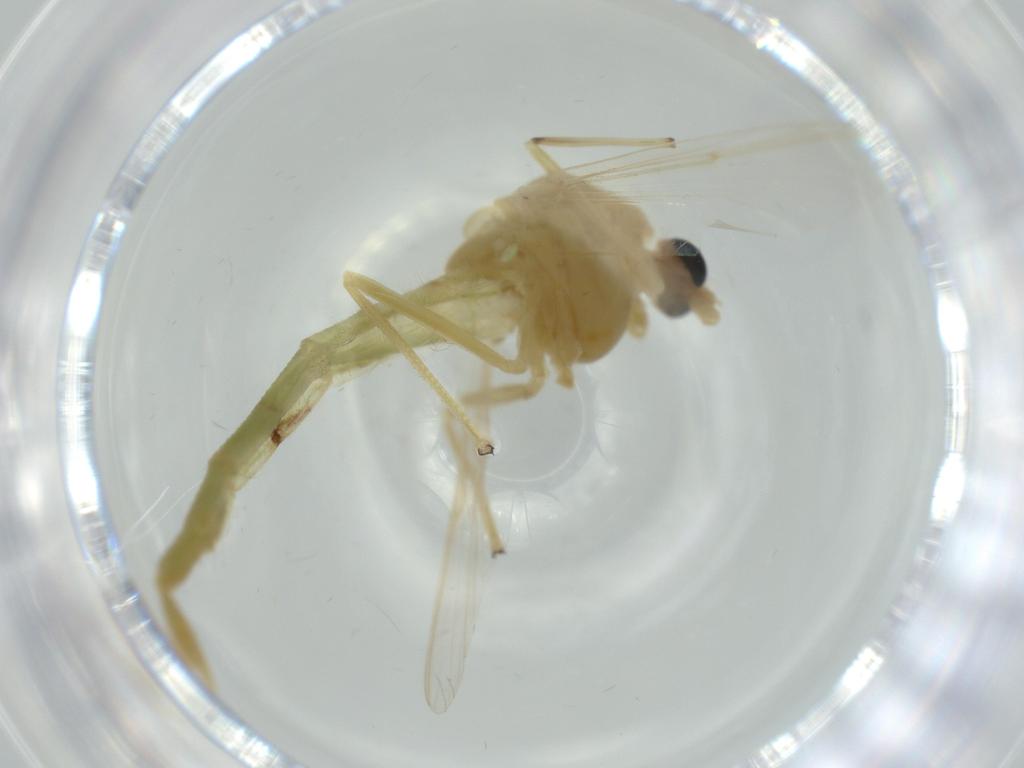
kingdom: Animalia
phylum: Arthropoda
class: Insecta
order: Diptera
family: Chironomidae
